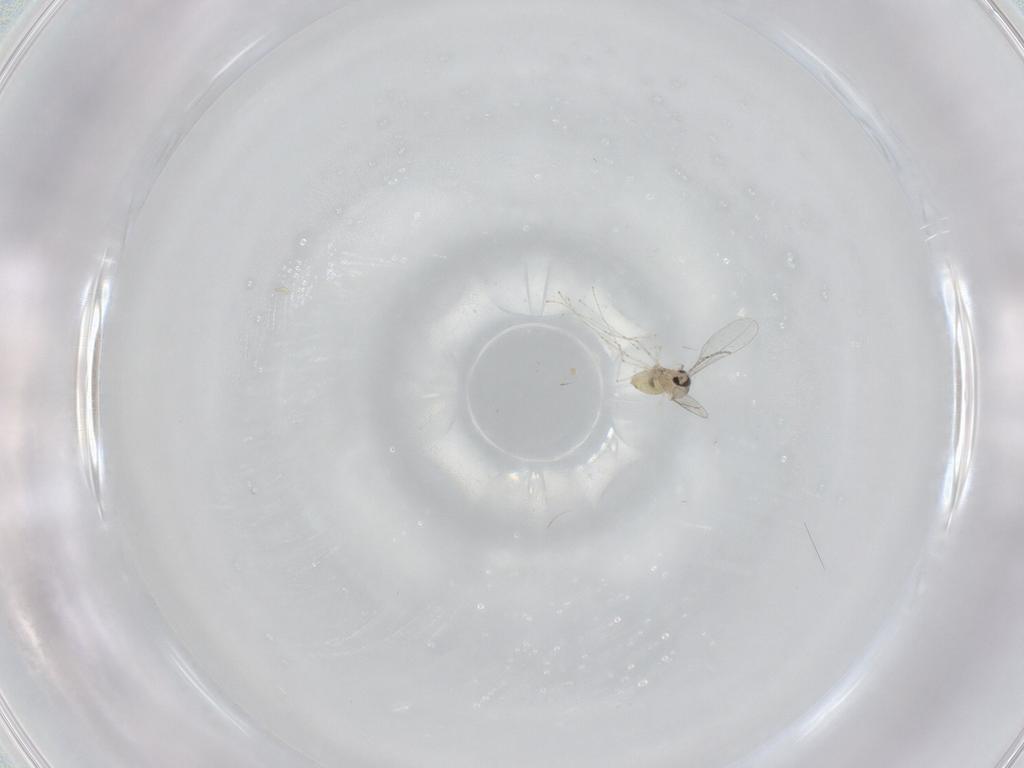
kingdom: Animalia
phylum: Arthropoda
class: Insecta
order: Diptera
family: Cecidomyiidae
